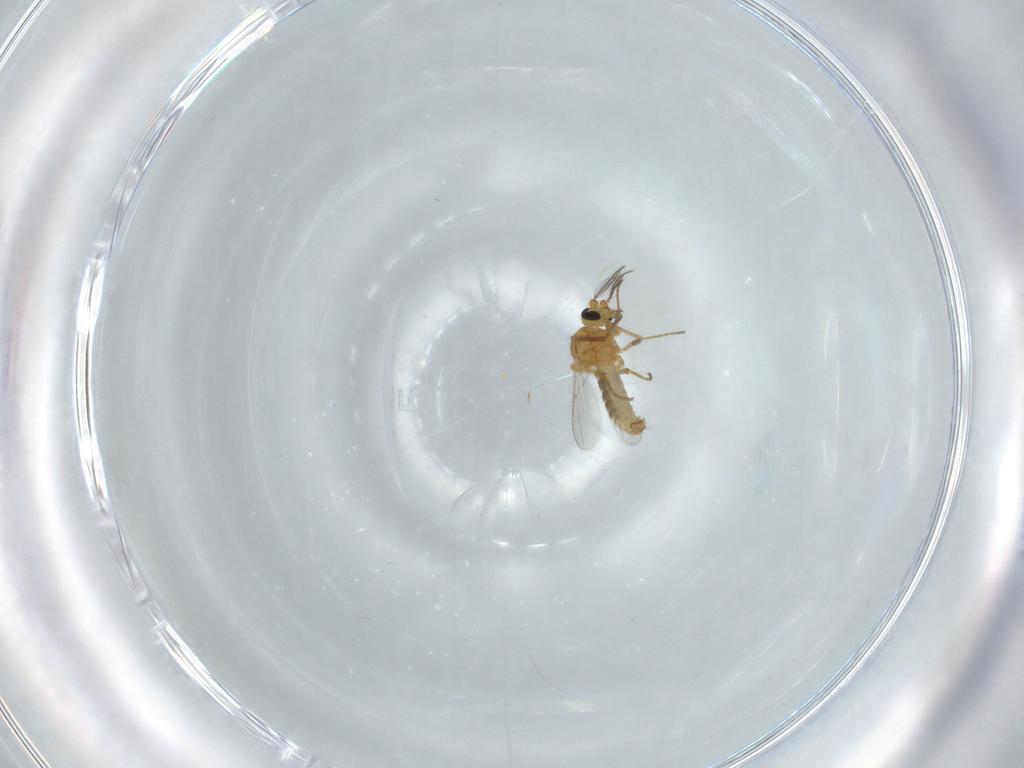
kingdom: Animalia
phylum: Arthropoda
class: Insecta
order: Diptera
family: Ceratopogonidae
